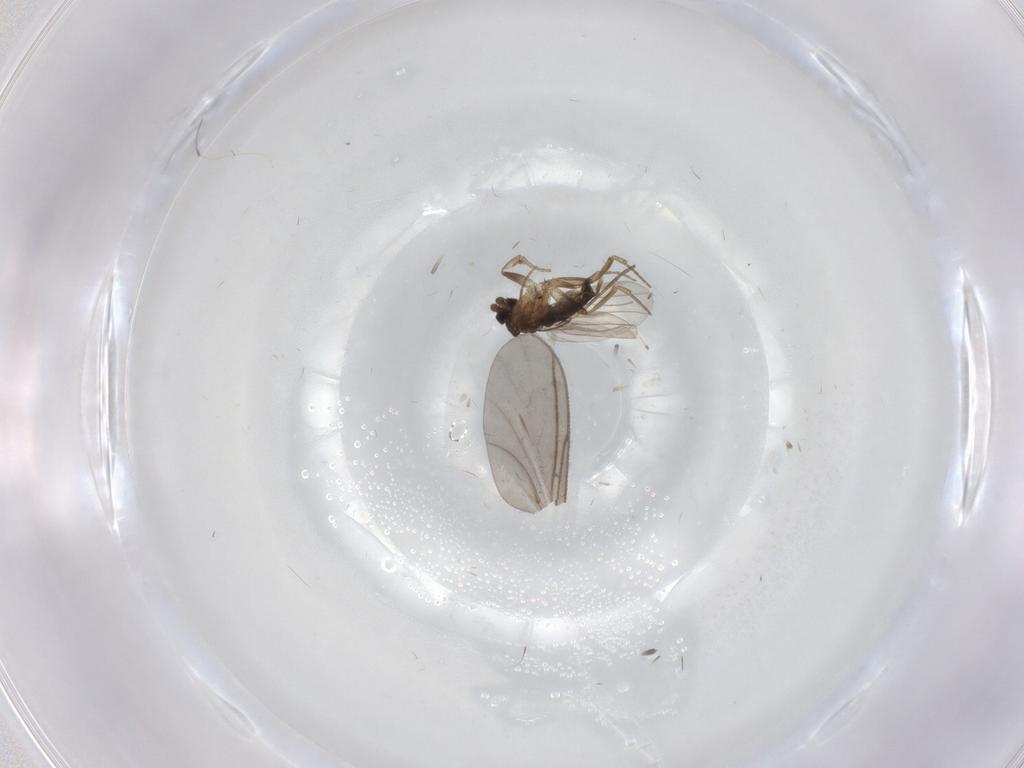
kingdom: Animalia
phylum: Arthropoda
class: Insecta
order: Diptera
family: Phoridae
